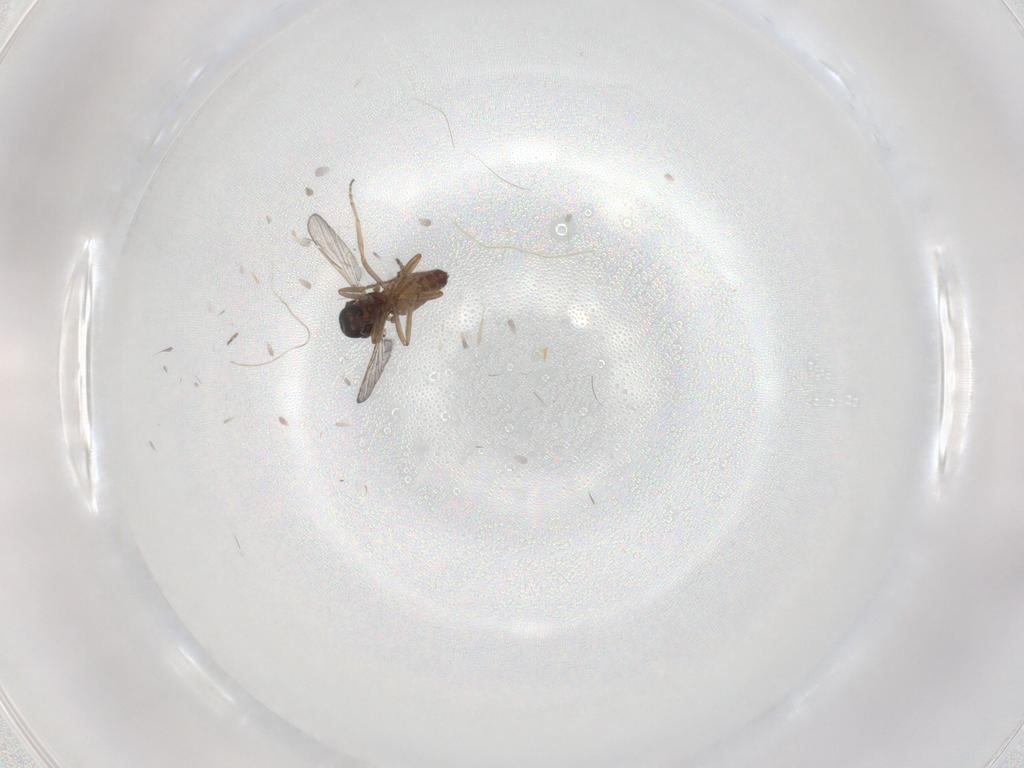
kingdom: Animalia
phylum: Arthropoda
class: Insecta
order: Diptera
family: Ceratopogonidae
